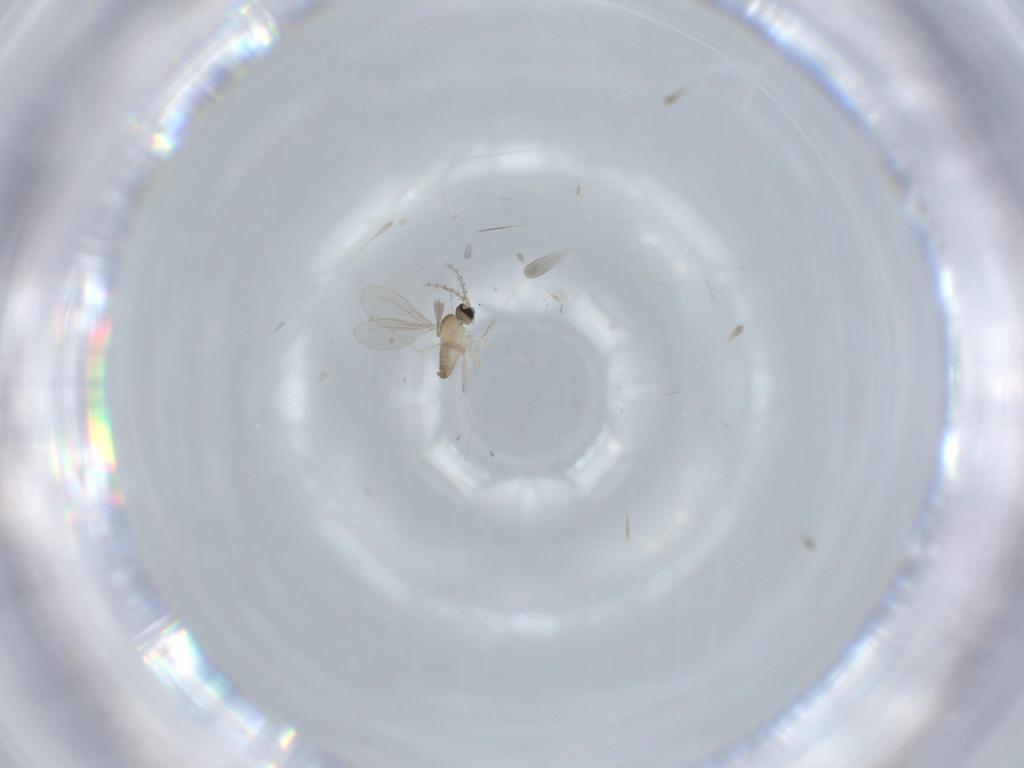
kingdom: Animalia
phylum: Arthropoda
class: Insecta
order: Diptera
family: Cecidomyiidae
